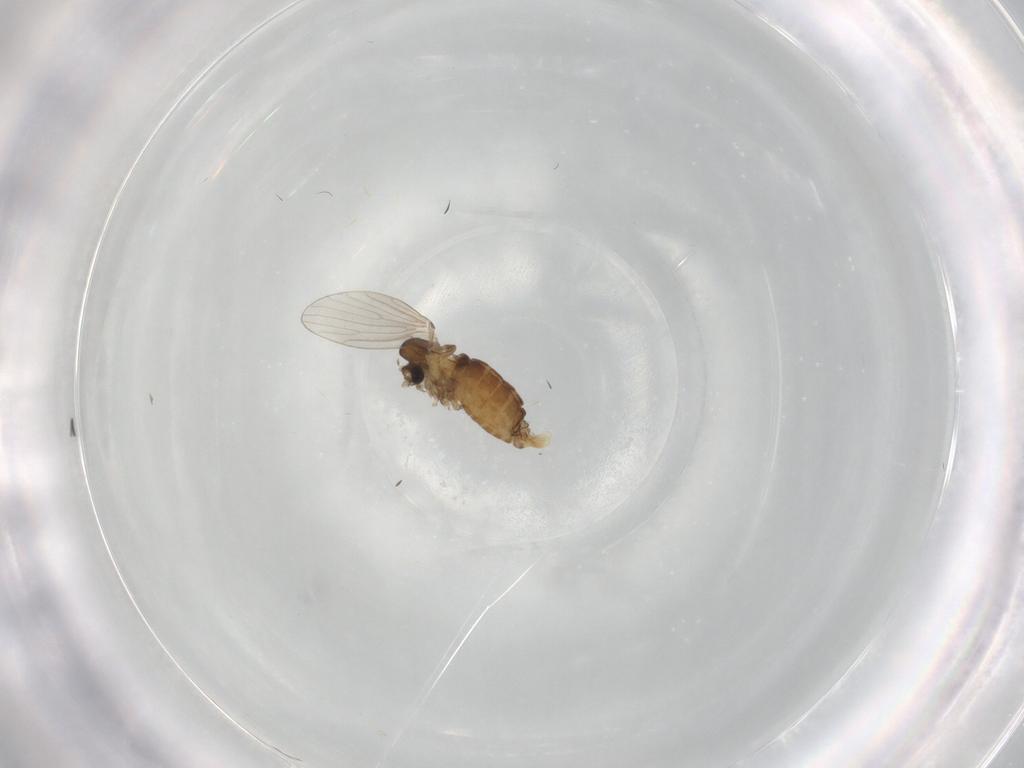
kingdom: Animalia
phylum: Arthropoda
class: Insecta
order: Diptera
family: Psychodidae
